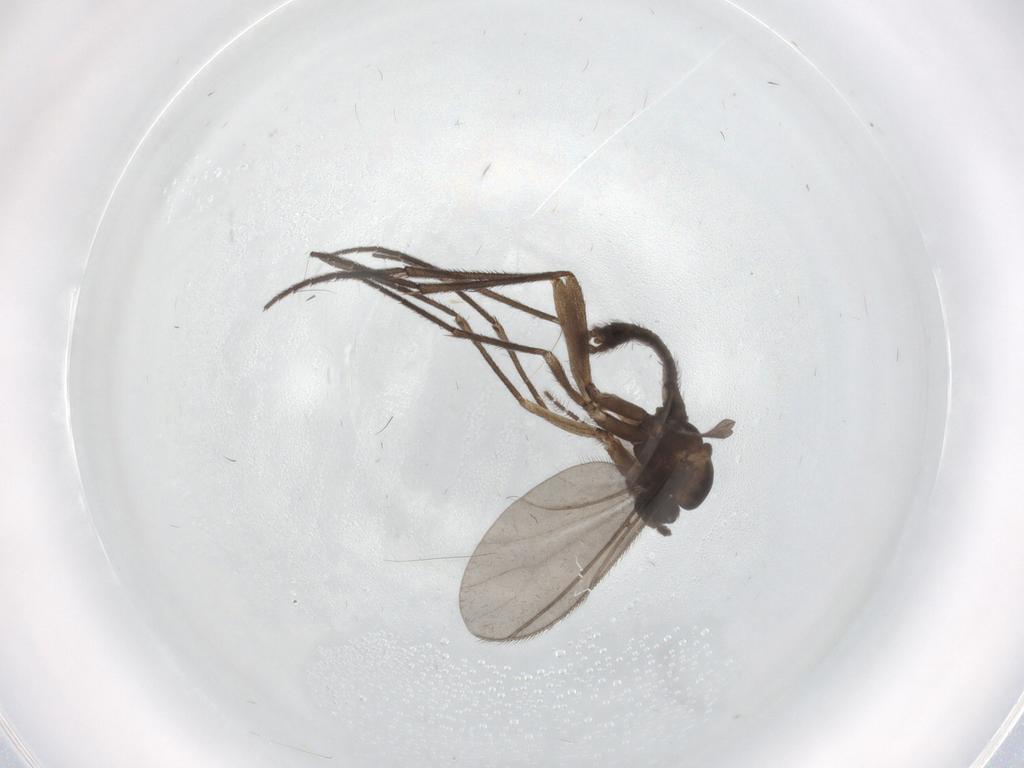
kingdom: Animalia
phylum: Arthropoda
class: Insecta
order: Diptera
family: Sciaridae
